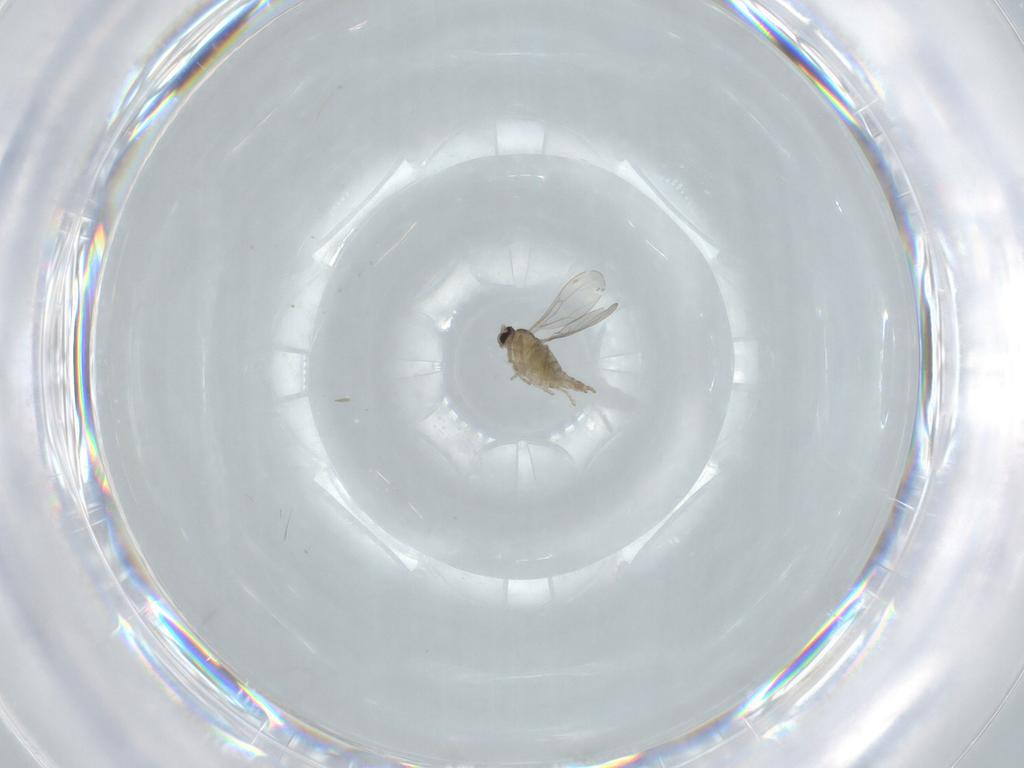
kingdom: Animalia
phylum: Arthropoda
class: Insecta
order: Diptera
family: Cecidomyiidae
